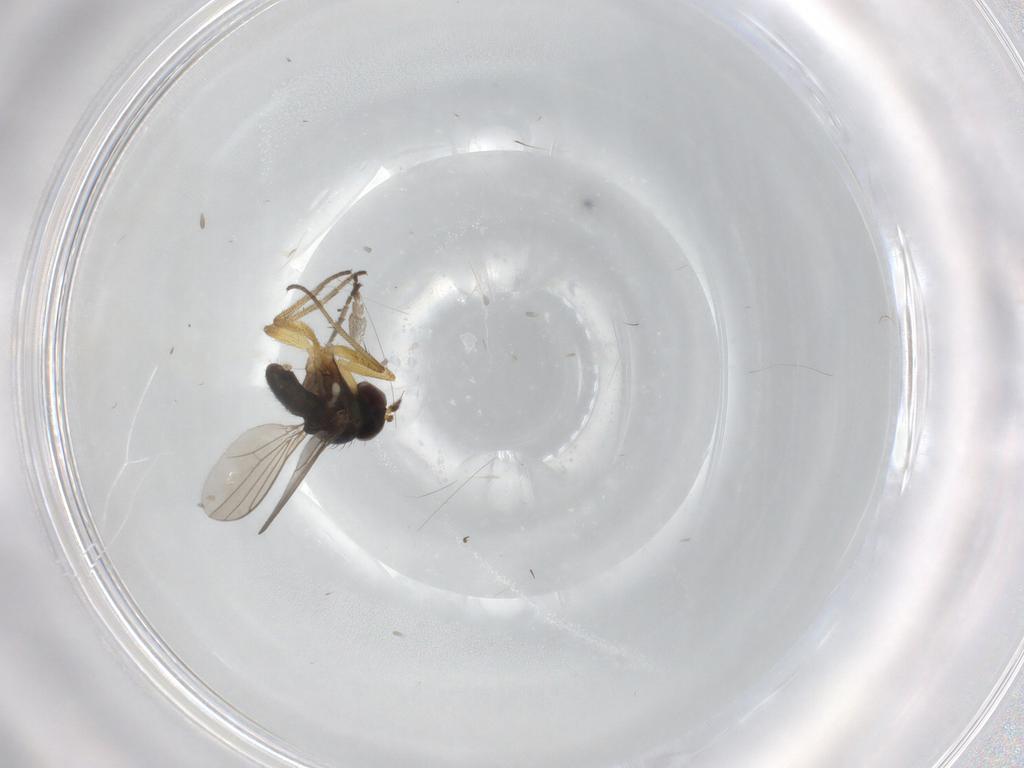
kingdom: Animalia
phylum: Arthropoda
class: Insecta
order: Diptera
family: Dolichopodidae
